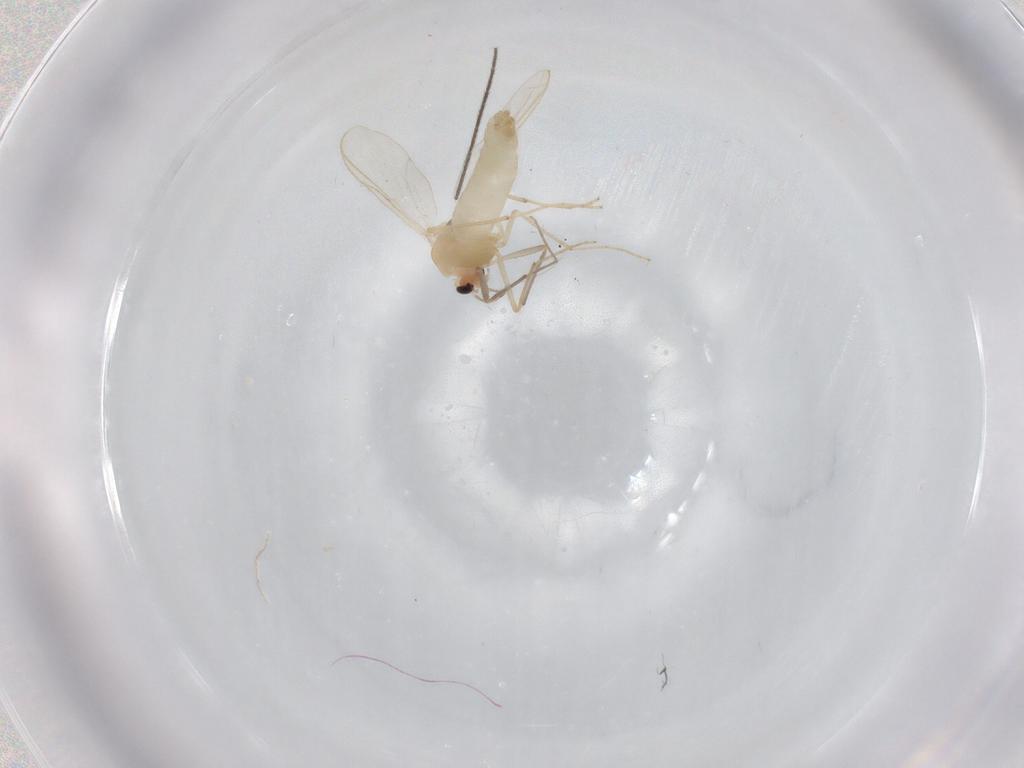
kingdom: Animalia
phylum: Arthropoda
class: Insecta
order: Diptera
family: Chironomidae
